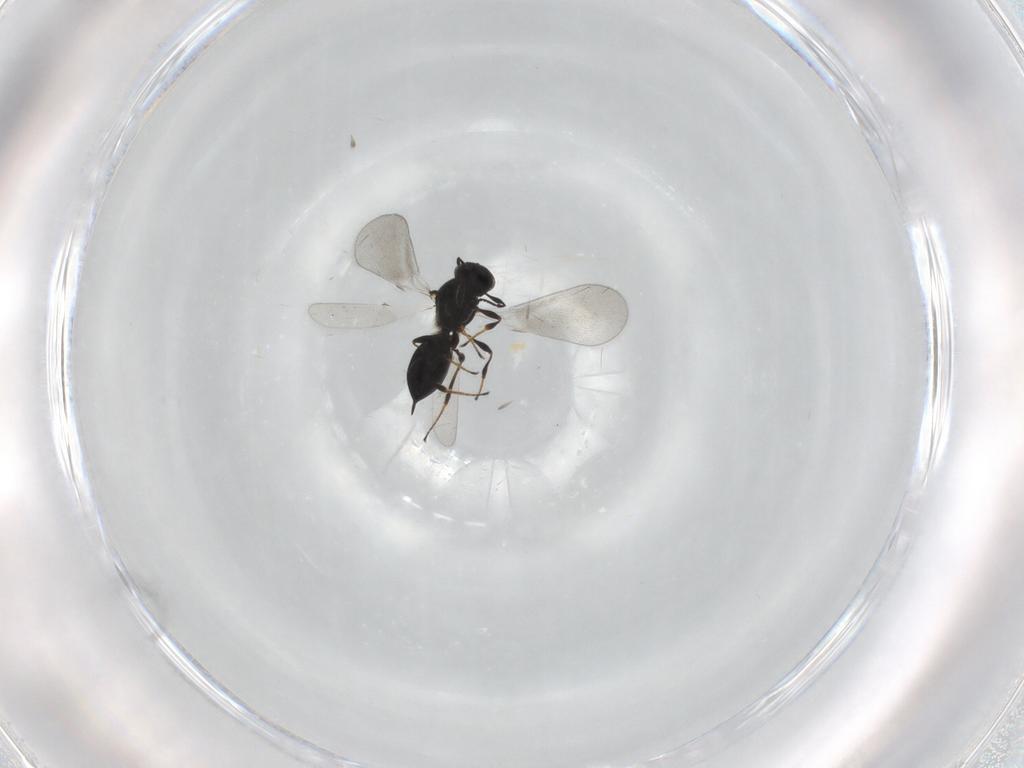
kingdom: Animalia
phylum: Arthropoda
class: Insecta
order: Hymenoptera
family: Platygastridae
